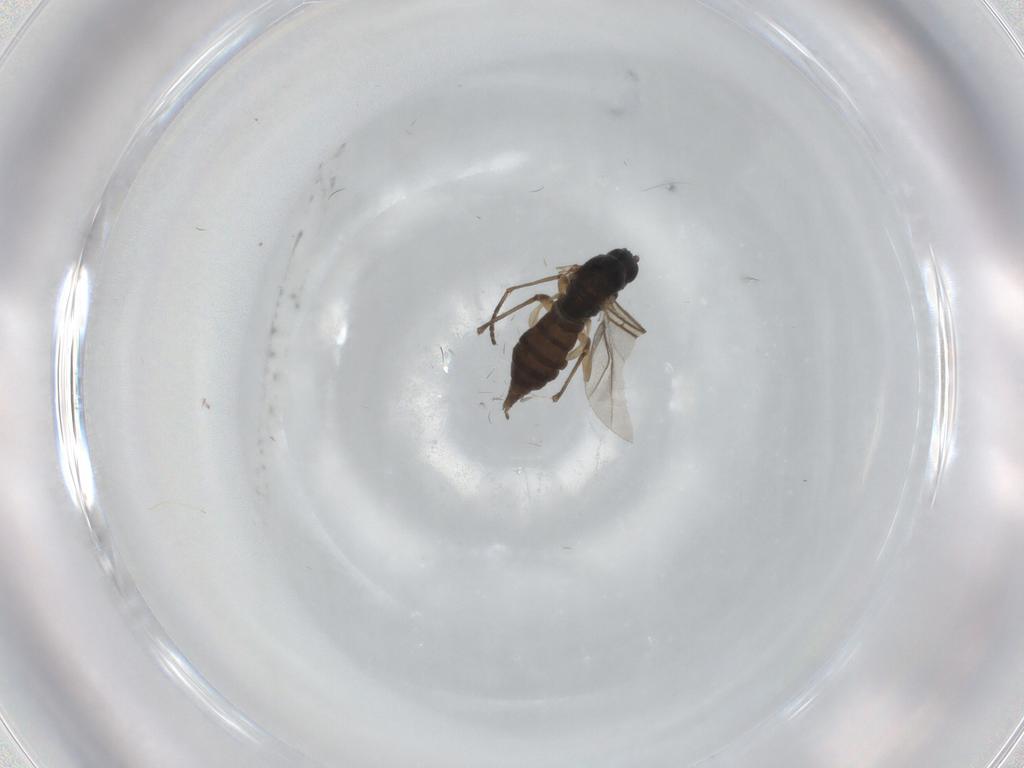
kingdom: Animalia
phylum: Arthropoda
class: Insecta
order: Diptera
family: Sciaridae
